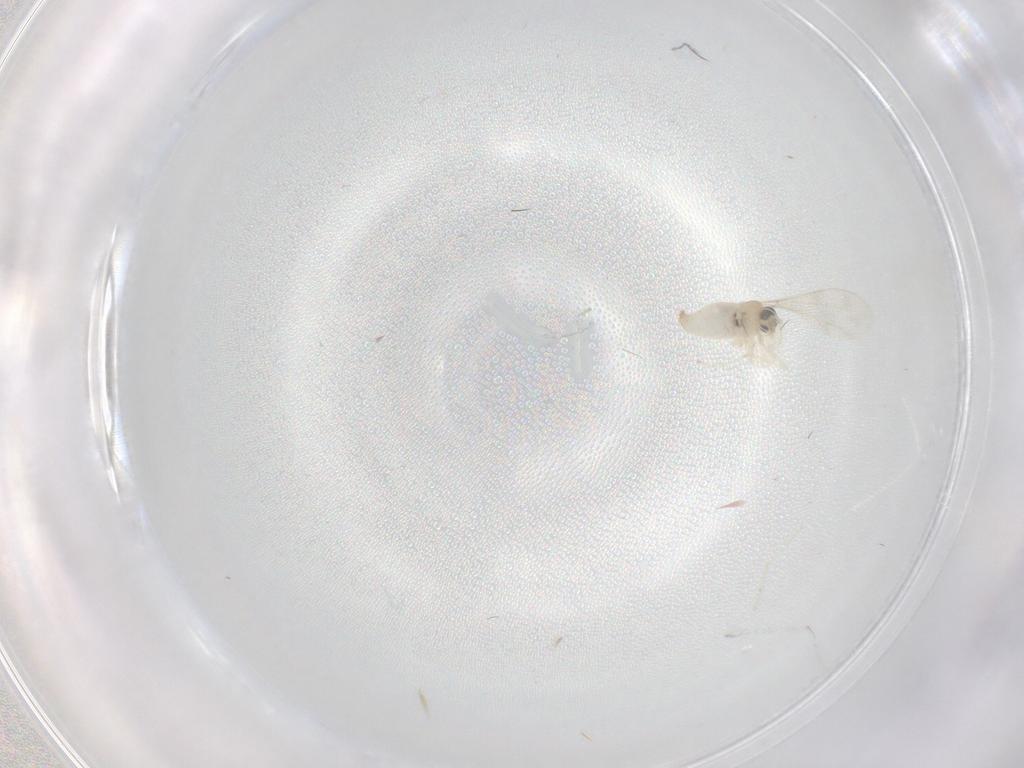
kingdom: Animalia
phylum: Arthropoda
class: Insecta
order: Diptera
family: Cecidomyiidae
